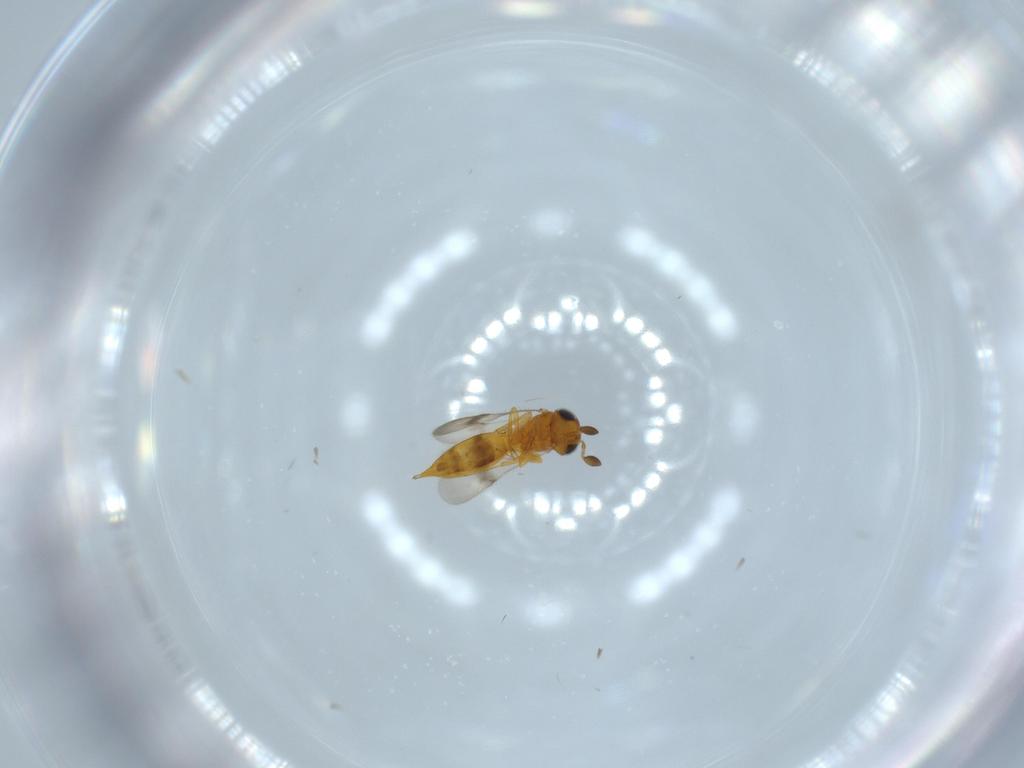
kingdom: Animalia
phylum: Arthropoda
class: Insecta
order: Hymenoptera
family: Scelionidae
